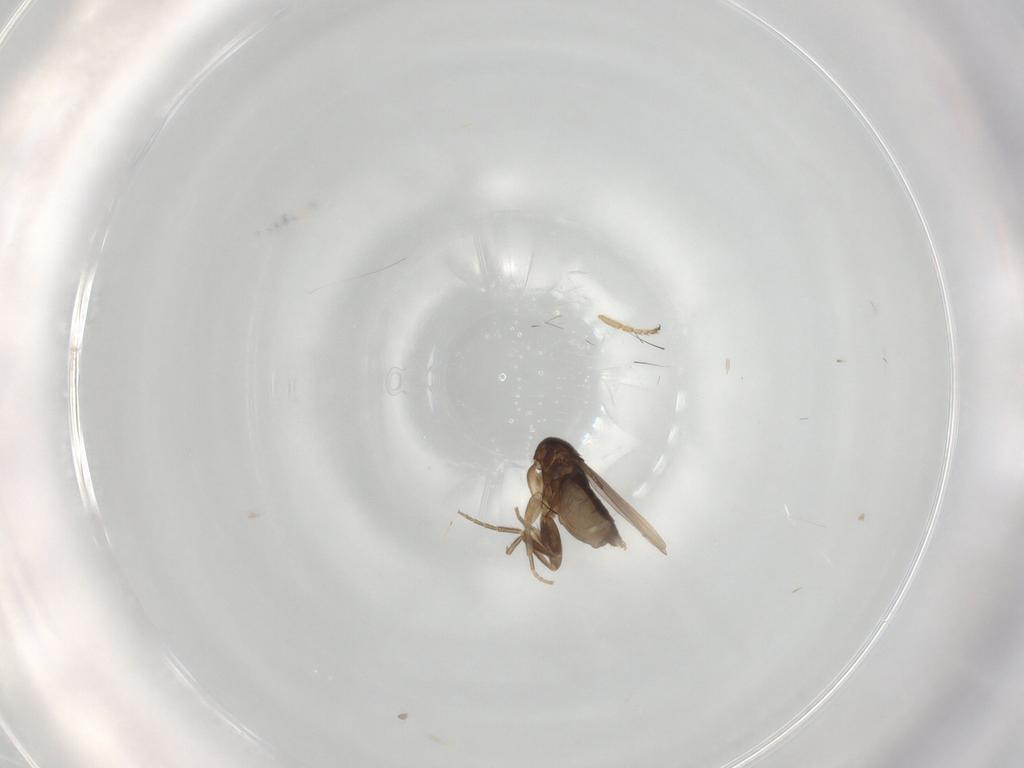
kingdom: Animalia
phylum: Arthropoda
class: Insecta
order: Diptera
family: Phoridae
